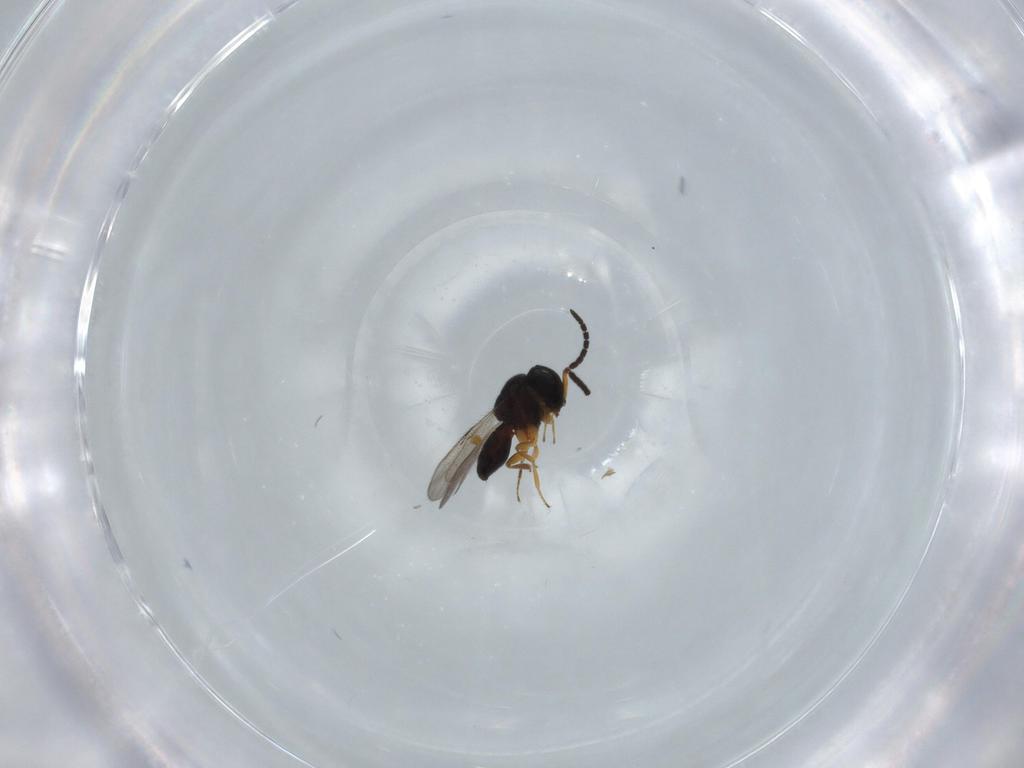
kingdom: Animalia
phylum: Arthropoda
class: Insecta
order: Coleoptera
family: Curculionidae
